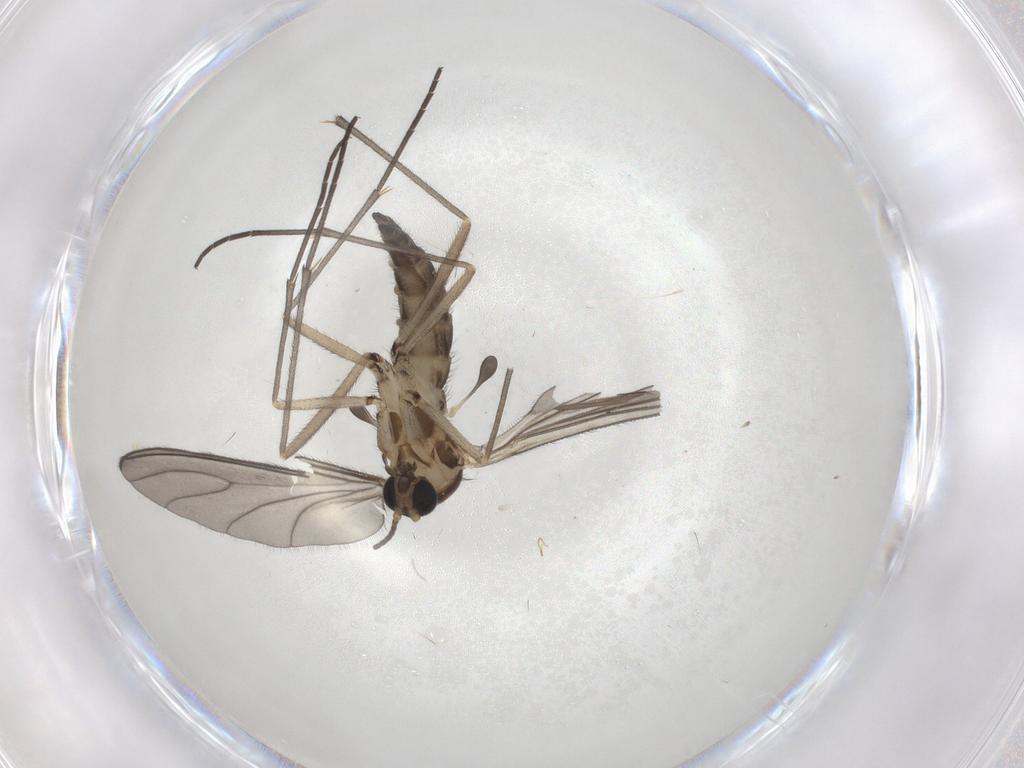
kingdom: Animalia
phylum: Arthropoda
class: Insecta
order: Diptera
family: Sciaridae
